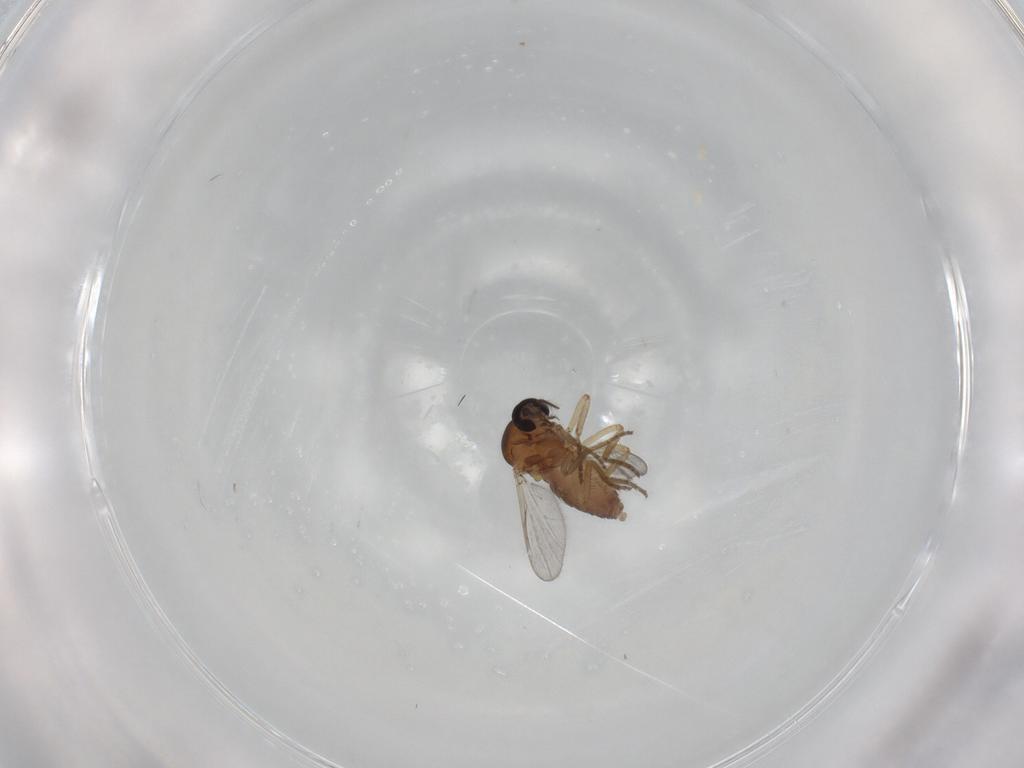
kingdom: Animalia
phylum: Arthropoda
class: Insecta
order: Diptera
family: Ceratopogonidae
